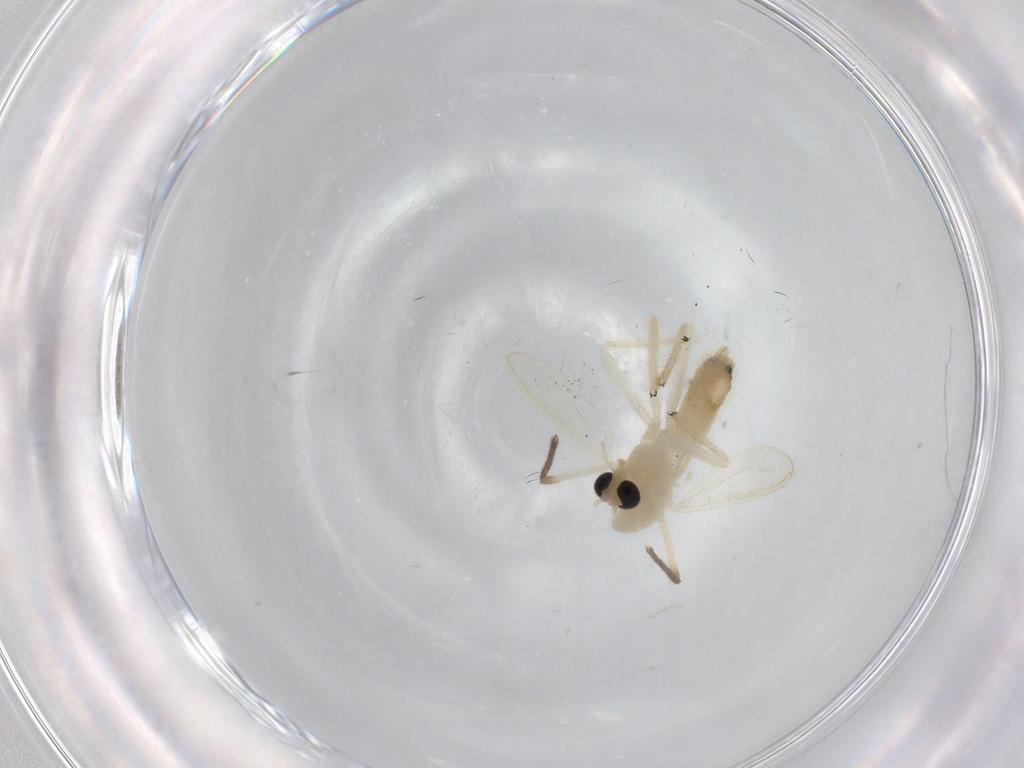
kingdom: Animalia
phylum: Arthropoda
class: Insecta
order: Diptera
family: Chironomidae
